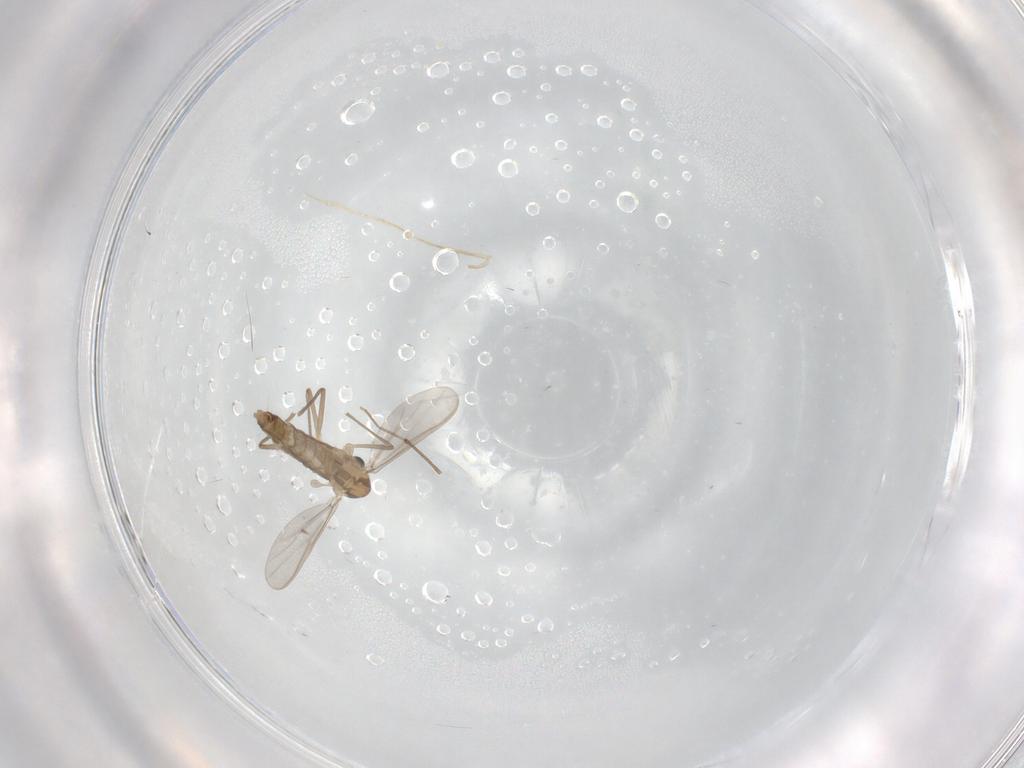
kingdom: Animalia
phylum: Arthropoda
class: Insecta
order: Diptera
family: Chironomidae
